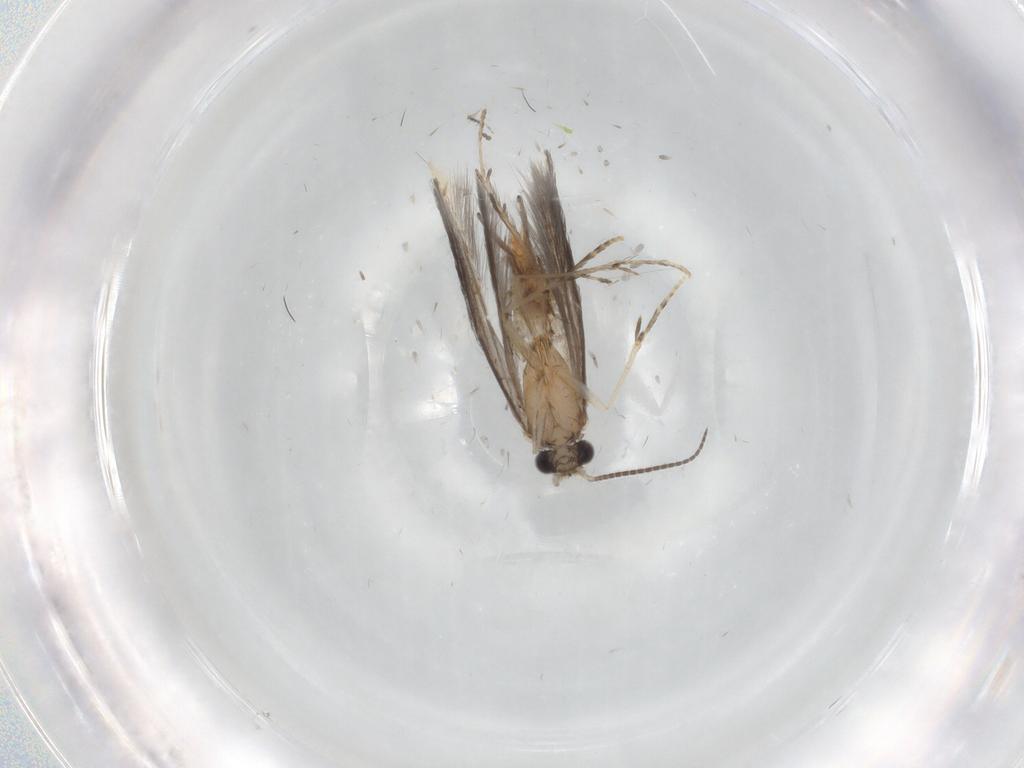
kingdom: Animalia
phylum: Arthropoda
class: Insecta
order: Trichoptera
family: Hydroptilidae
